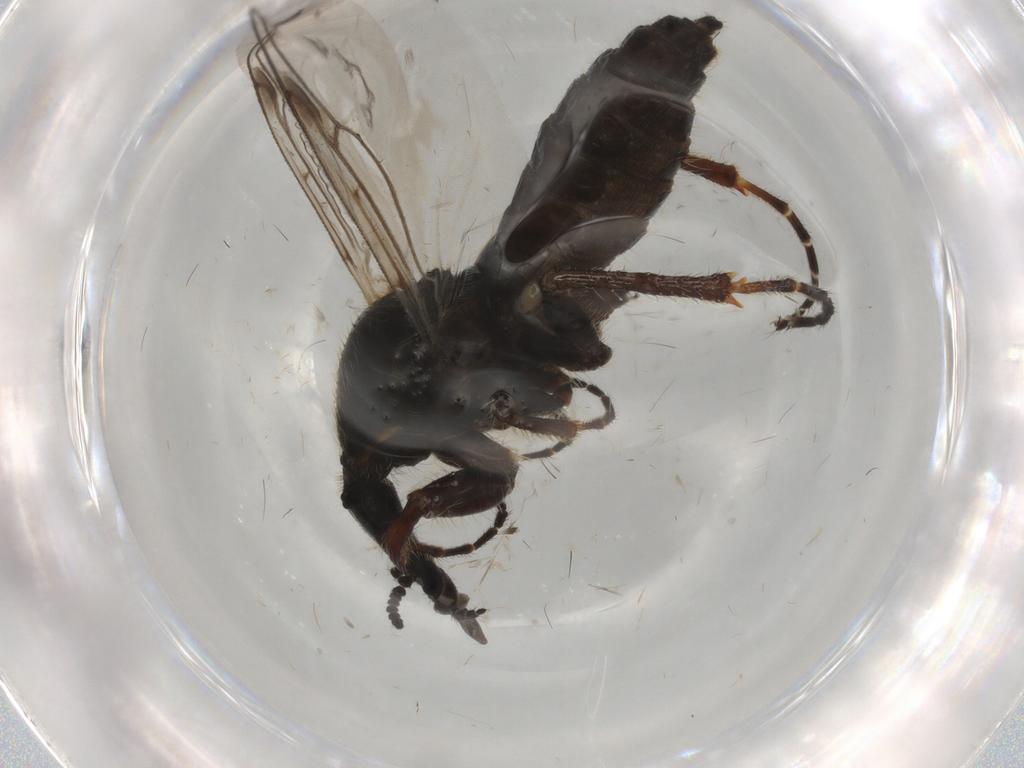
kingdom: Animalia
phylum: Arthropoda
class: Insecta
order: Diptera
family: Bibionidae
